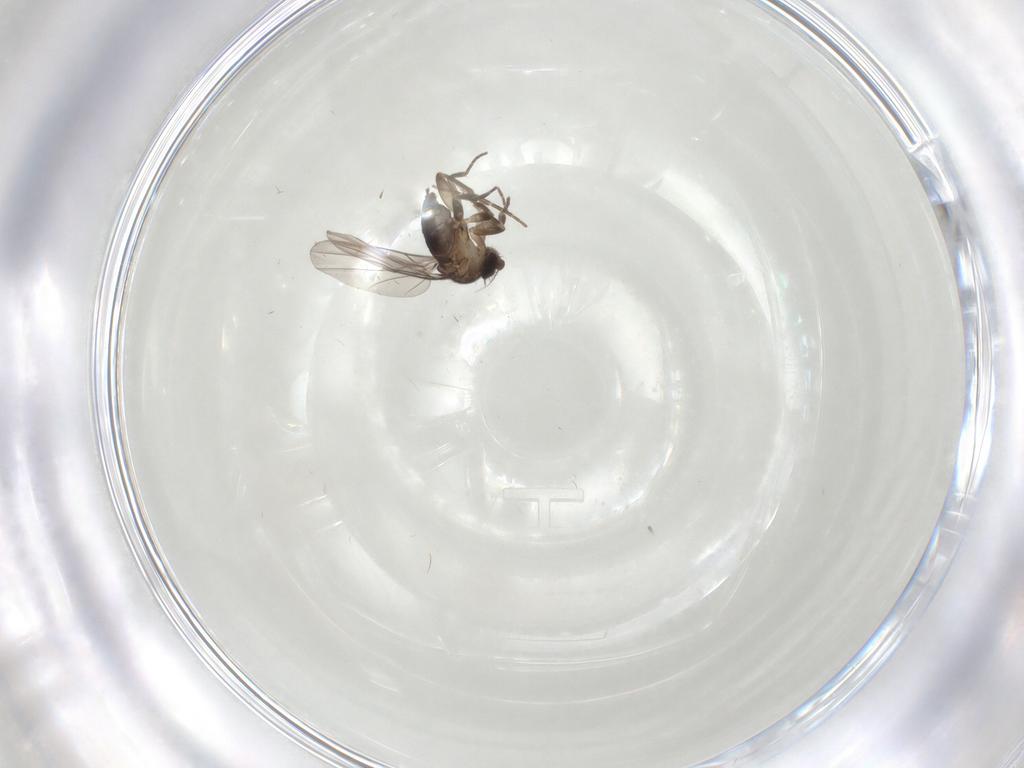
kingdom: Animalia
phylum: Arthropoda
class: Insecta
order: Diptera
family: Phoridae
